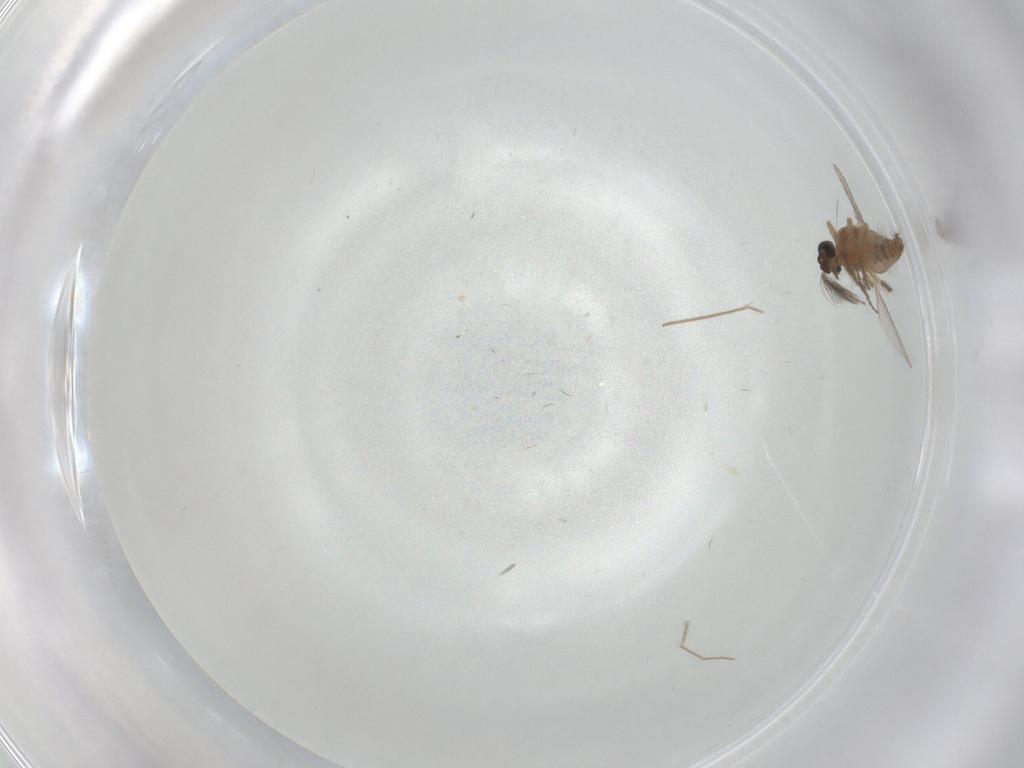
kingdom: Animalia
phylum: Arthropoda
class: Insecta
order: Diptera
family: Ceratopogonidae
